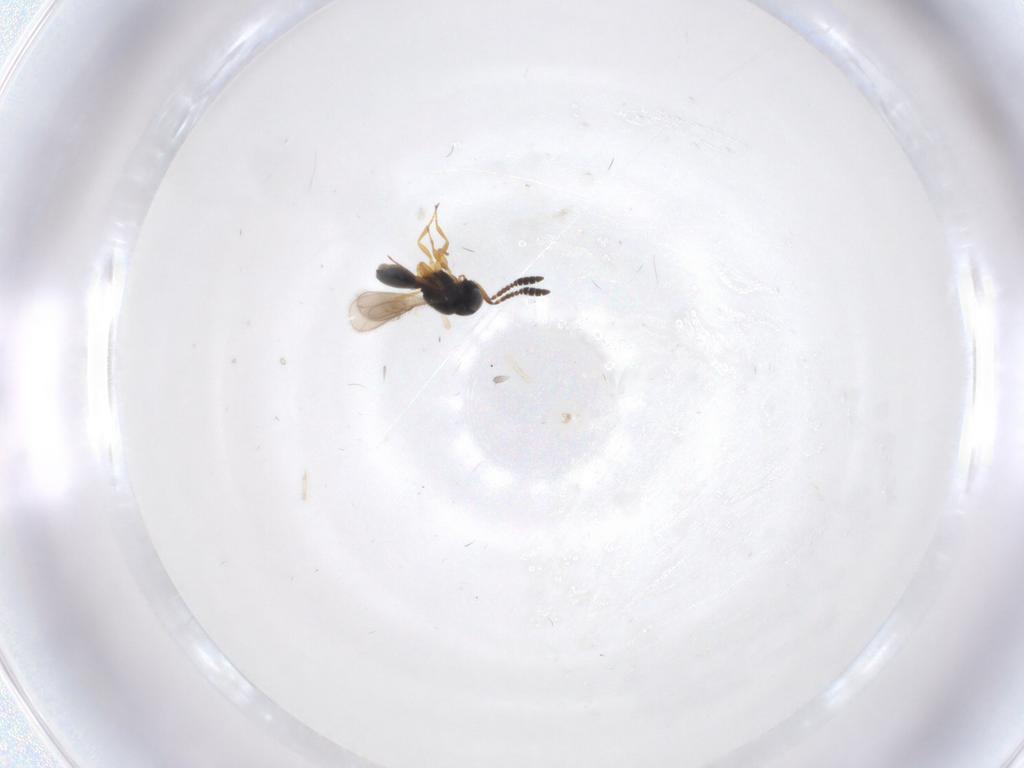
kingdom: Animalia
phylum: Arthropoda
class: Insecta
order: Hymenoptera
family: Scelionidae
